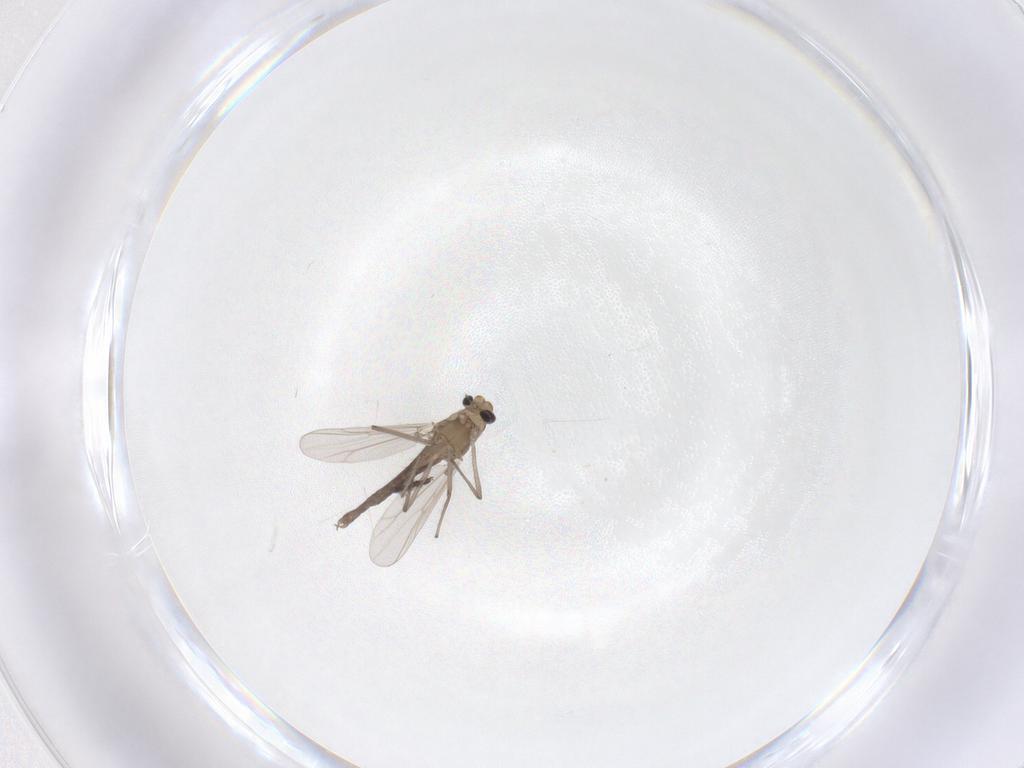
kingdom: Animalia
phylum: Arthropoda
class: Insecta
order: Diptera
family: Chironomidae
